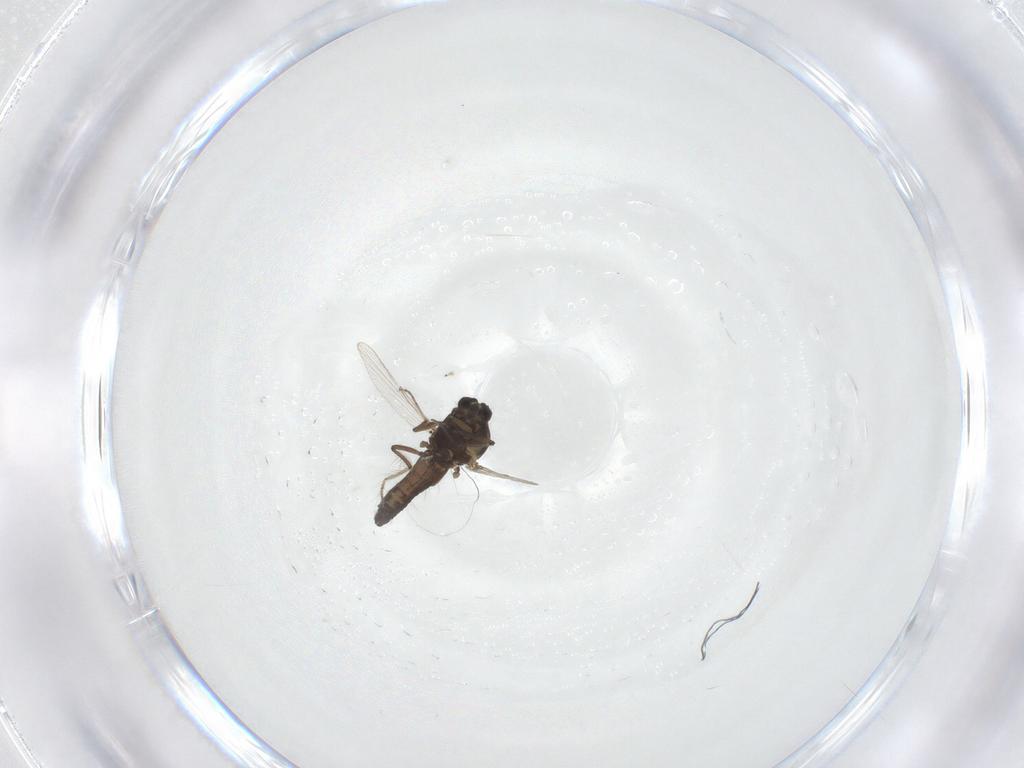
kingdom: Animalia
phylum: Arthropoda
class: Insecta
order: Diptera
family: Ceratopogonidae
